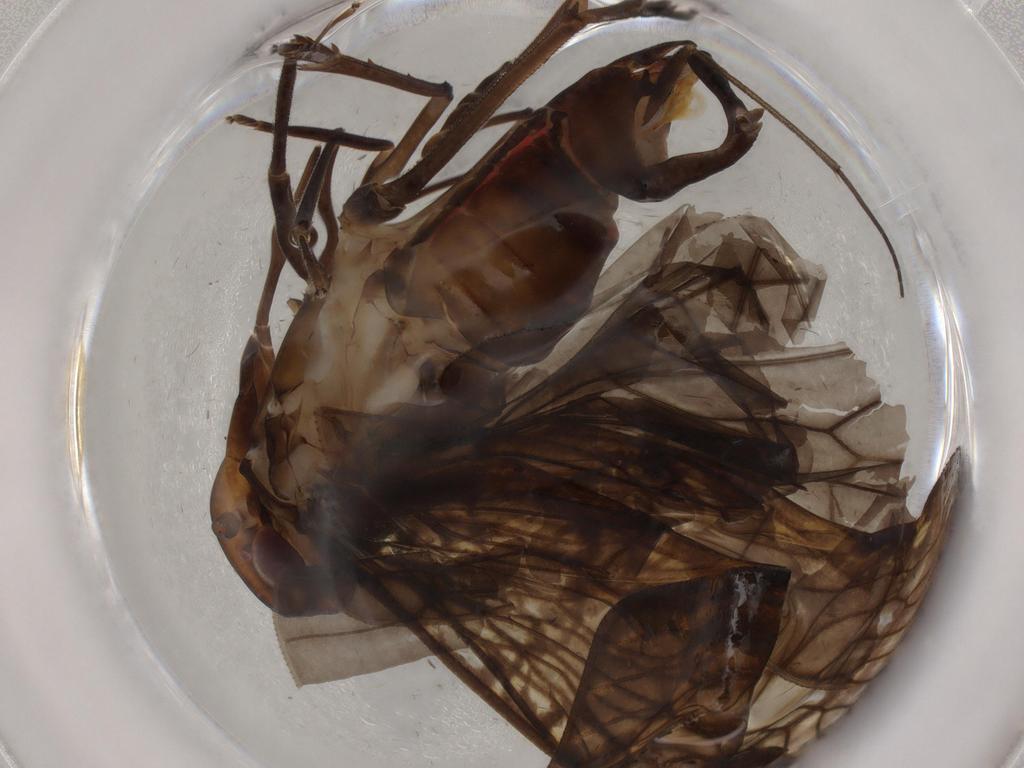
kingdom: Animalia
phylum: Arthropoda
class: Insecta
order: Hemiptera
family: Cixiidae
